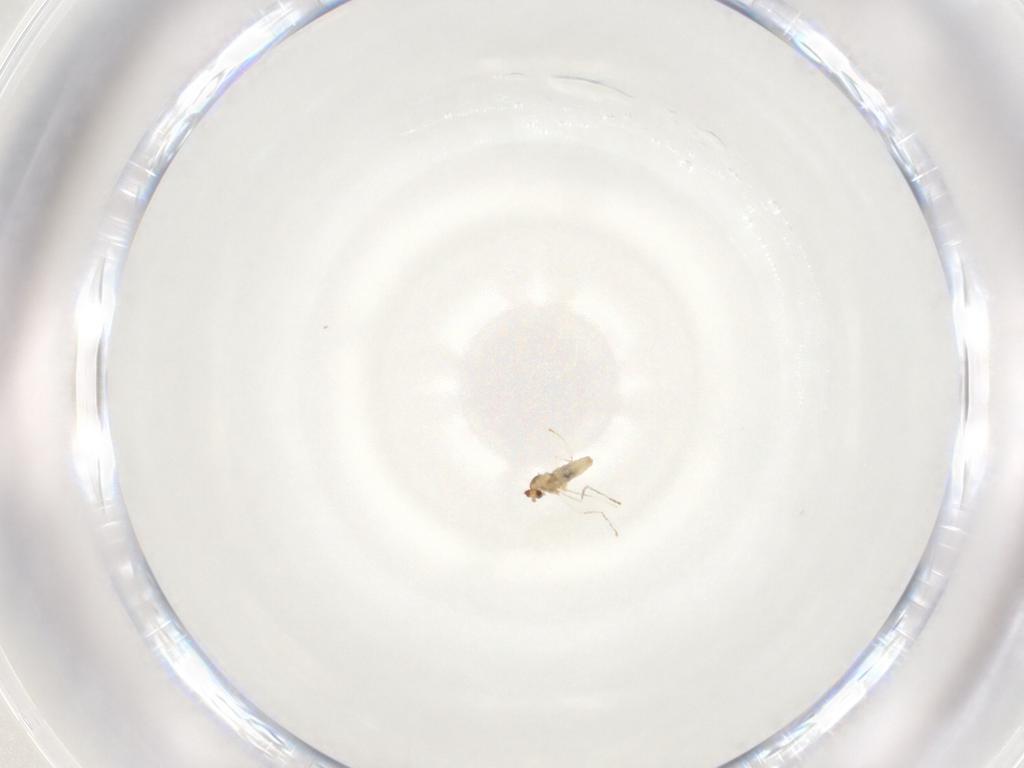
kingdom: Animalia
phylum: Arthropoda
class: Insecta
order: Diptera
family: Cecidomyiidae
